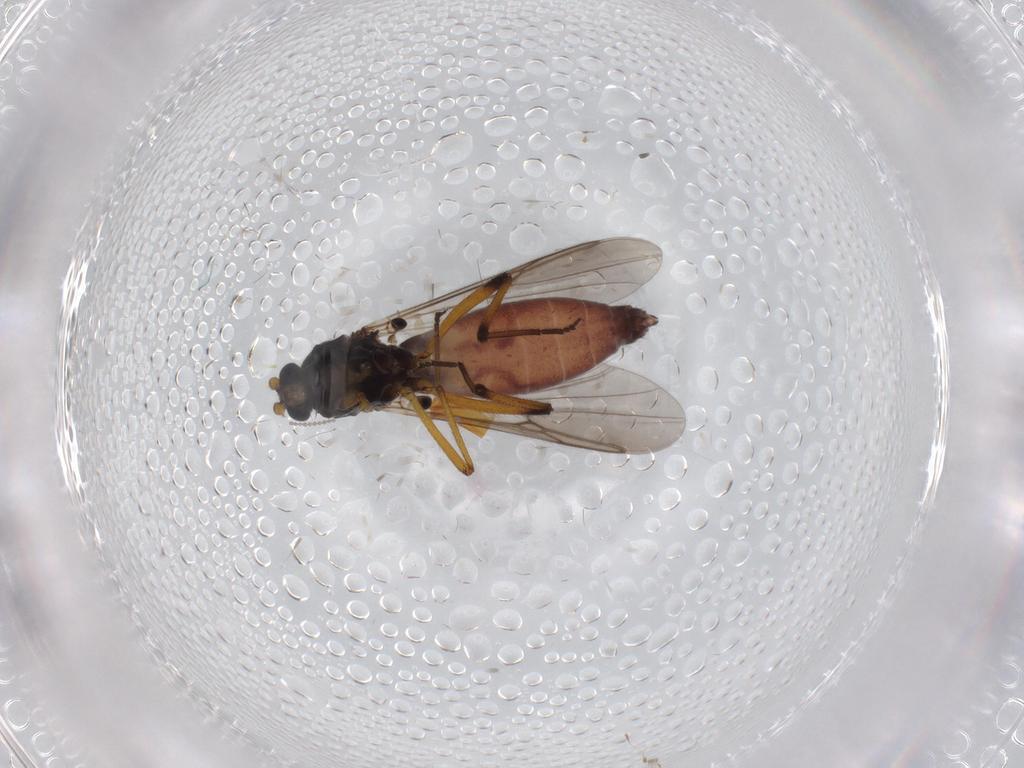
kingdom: Animalia
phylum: Arthropoda
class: Insecta
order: Diptera
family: Ceratopogonidae
